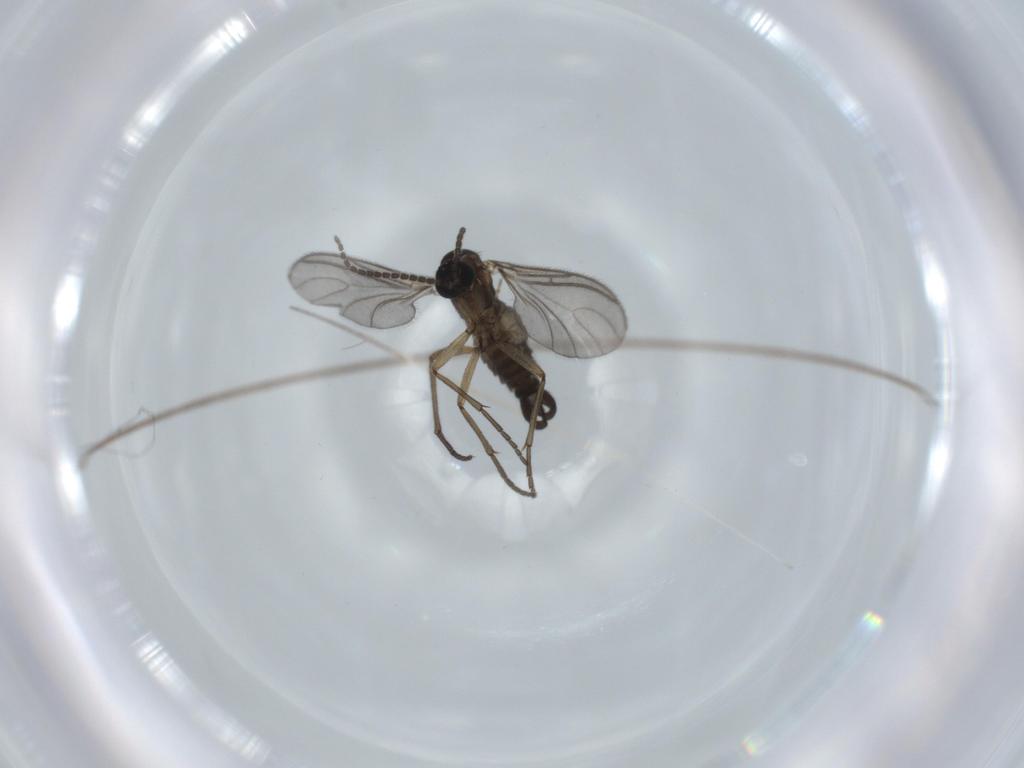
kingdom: Animalia
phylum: Arthropoda
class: Insecta
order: Diptera
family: Sciaridae
